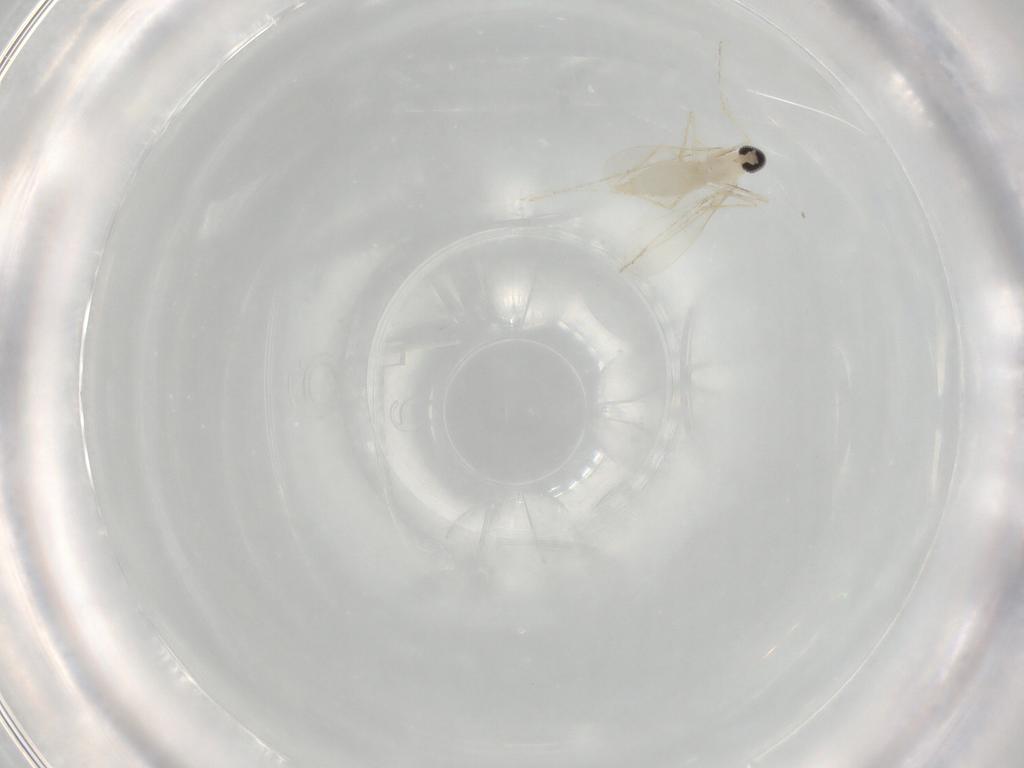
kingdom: Animalia
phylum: Arthropoda
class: Insecta
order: Diptera
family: Cecidomyiidae
